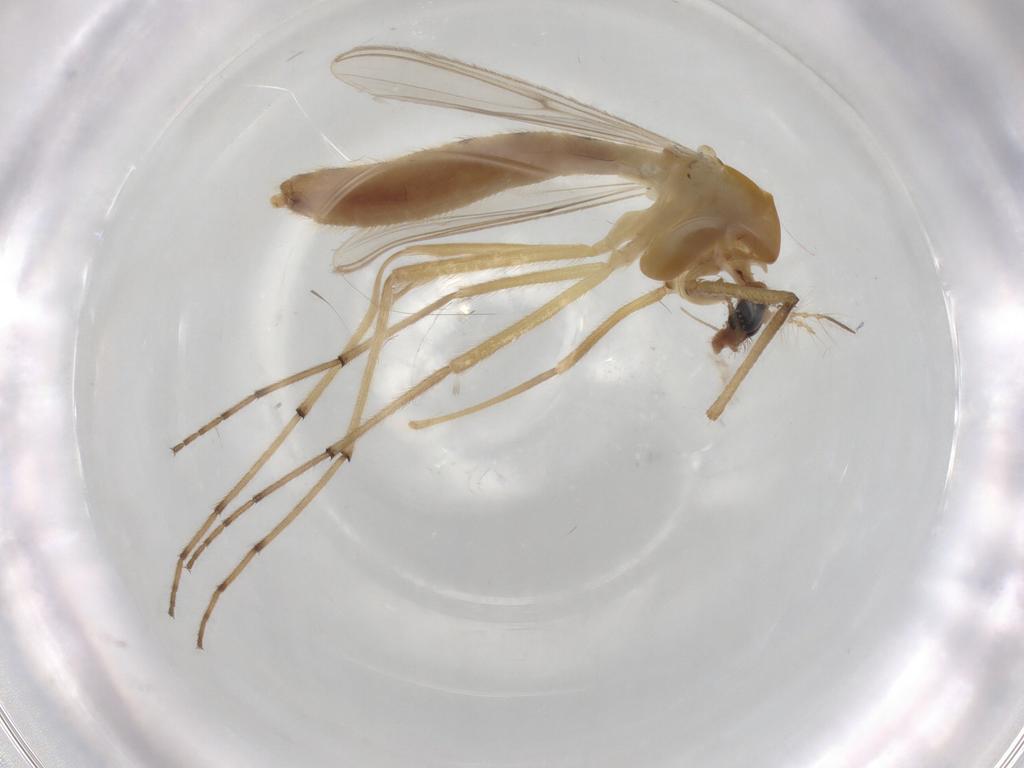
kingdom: Animalia
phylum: Arthropoda
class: Insecta
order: Diptera
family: Chironomidae
